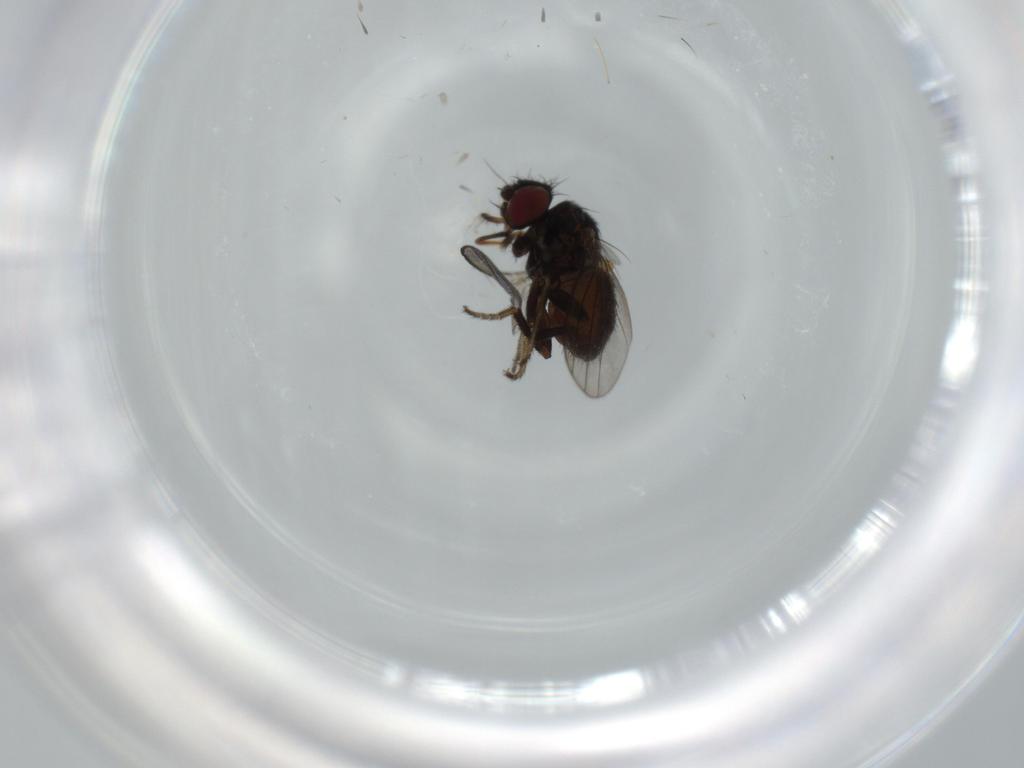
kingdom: Animalia
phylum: Arthropoda
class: Insecta
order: Diptera
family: Milichiidae
